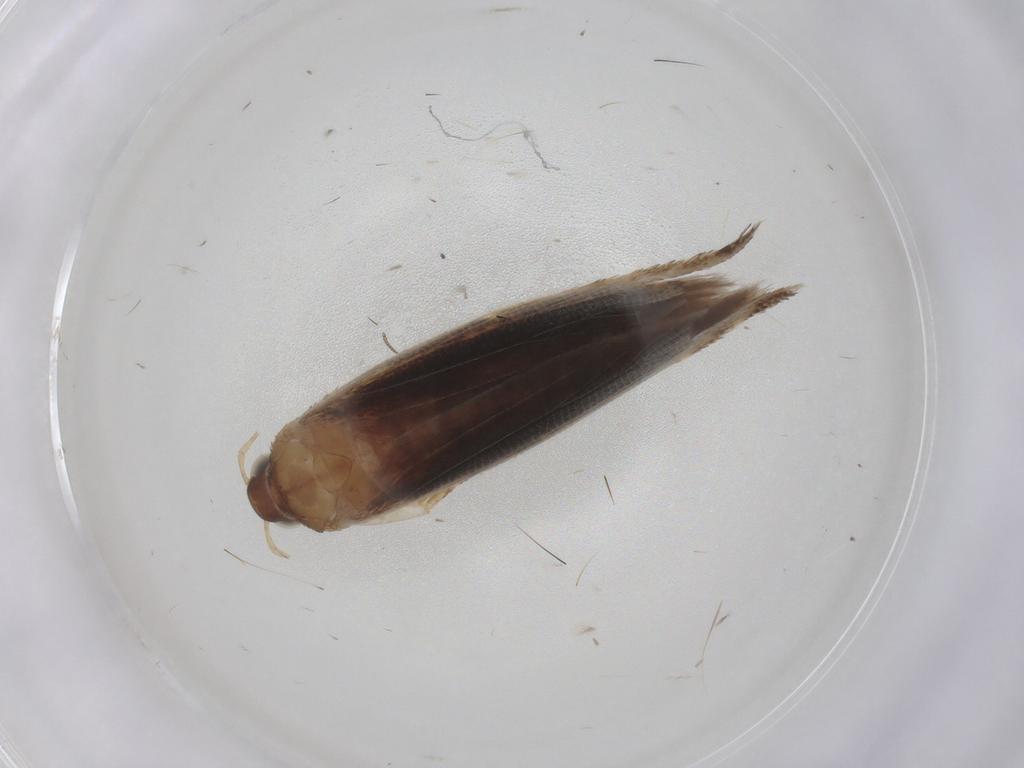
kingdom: Animalia
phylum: Arthropoda
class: Insecta
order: Lepidoptera
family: Gelechiidae
